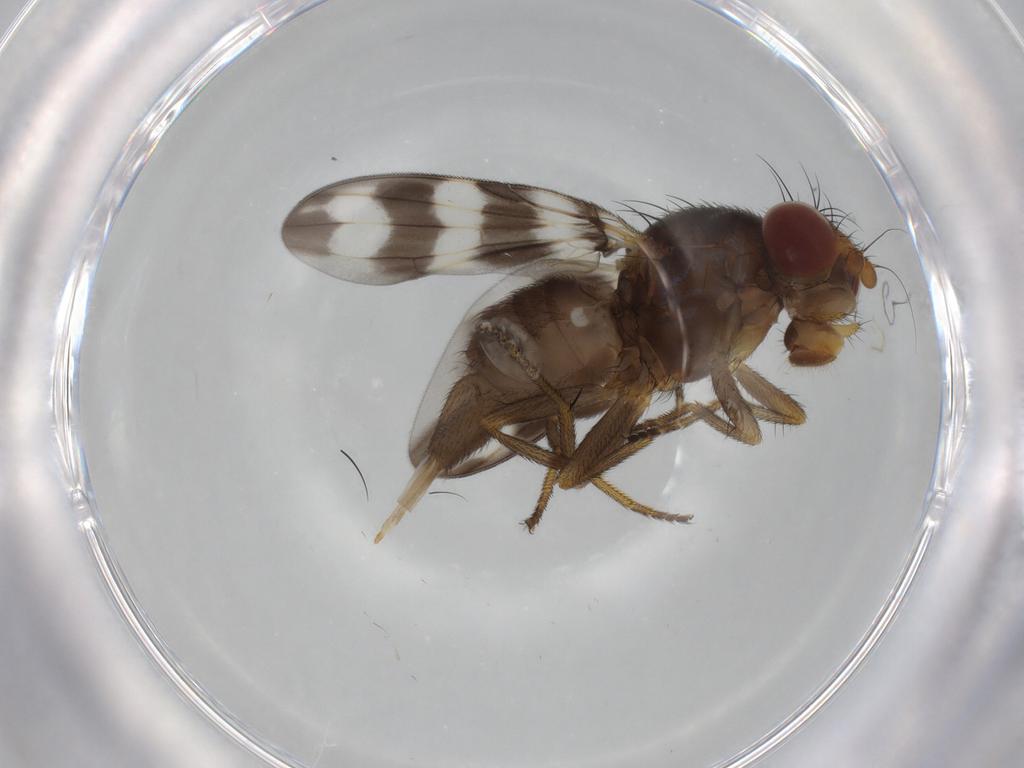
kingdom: Animalia
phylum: Arthropoda
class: Insecta
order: Diptera
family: Ulidiidae
